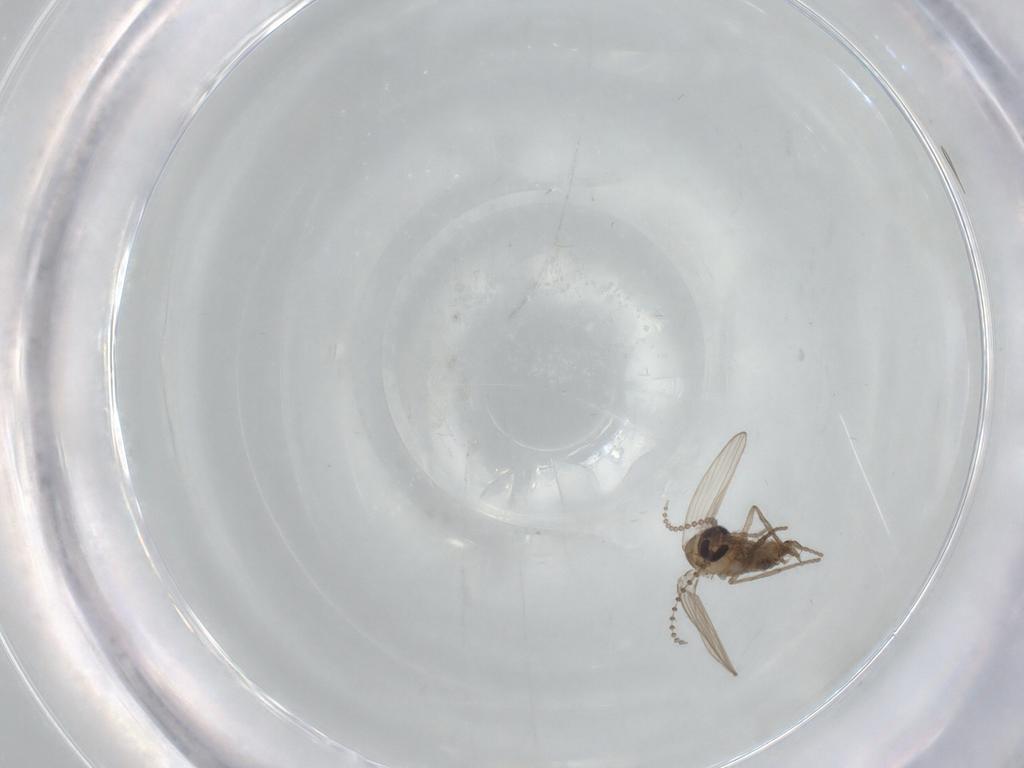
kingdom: Animalia
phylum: Arthropoda
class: Insecta
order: Diptera
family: Psychodidae
